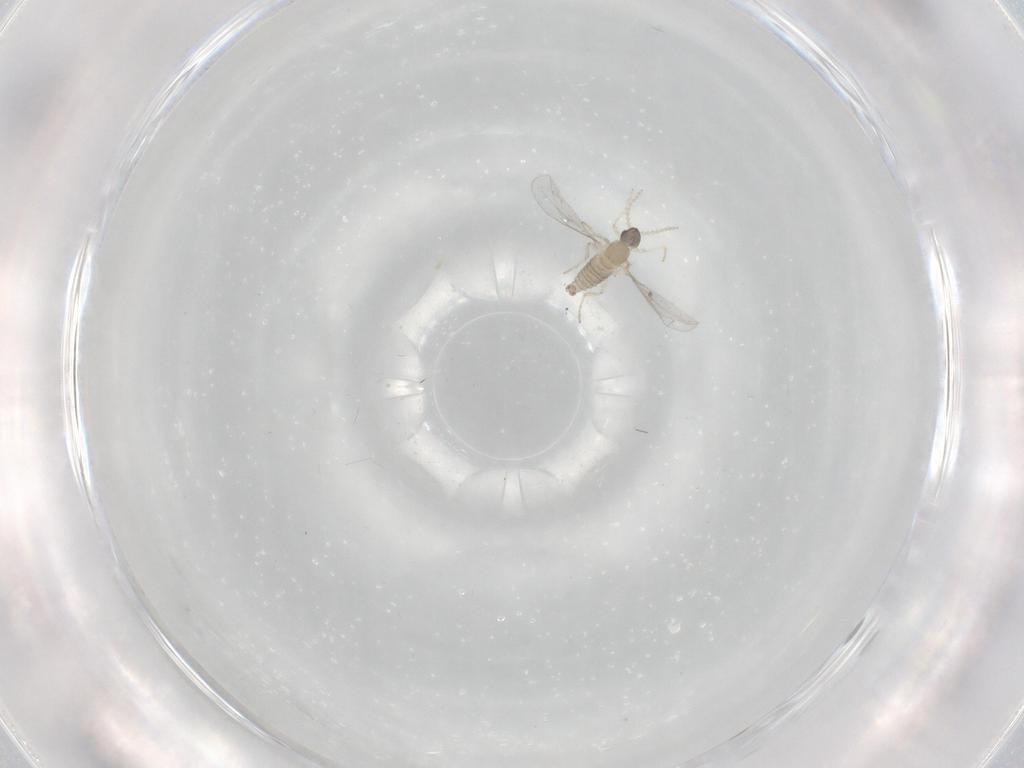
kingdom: Animalia
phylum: Arthropoda
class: Insecta
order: Diptera
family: Cecidomyiidae
